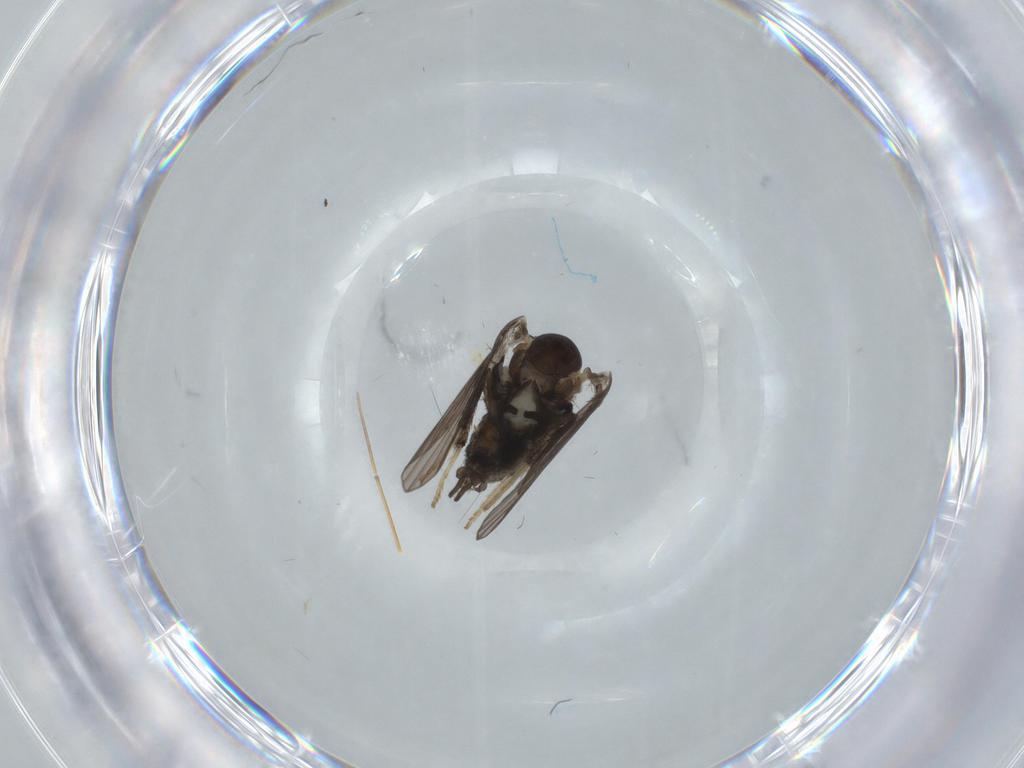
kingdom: Animalia
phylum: Arthropoda
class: Insecta
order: Diptera
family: Psychodidae
